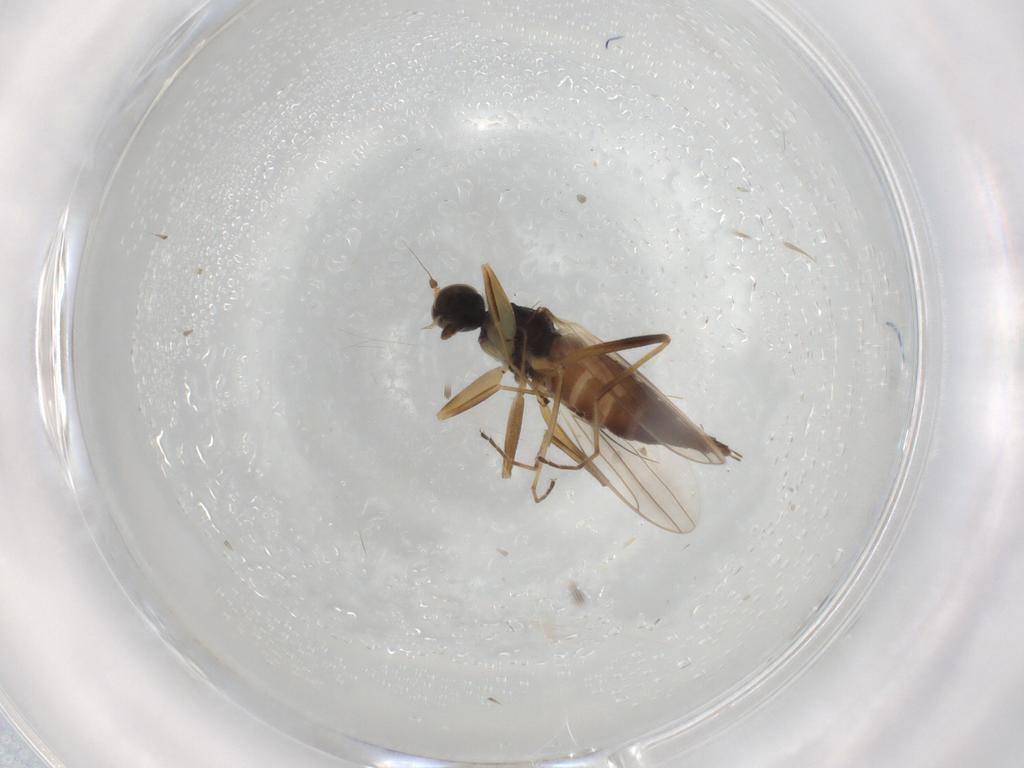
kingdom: Animalia
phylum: Arthropoda
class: Insecta
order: Diptera
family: Hybotidae
